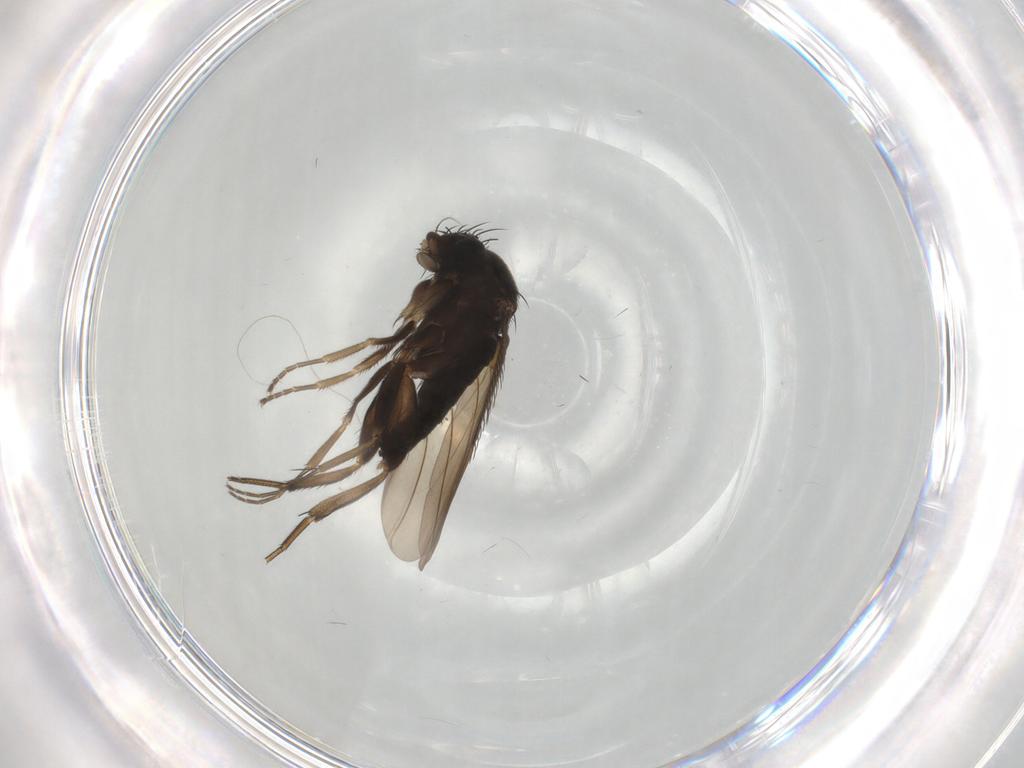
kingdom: Animalia
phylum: Arthropoda
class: Insecta
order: Diptera
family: Phoridae
